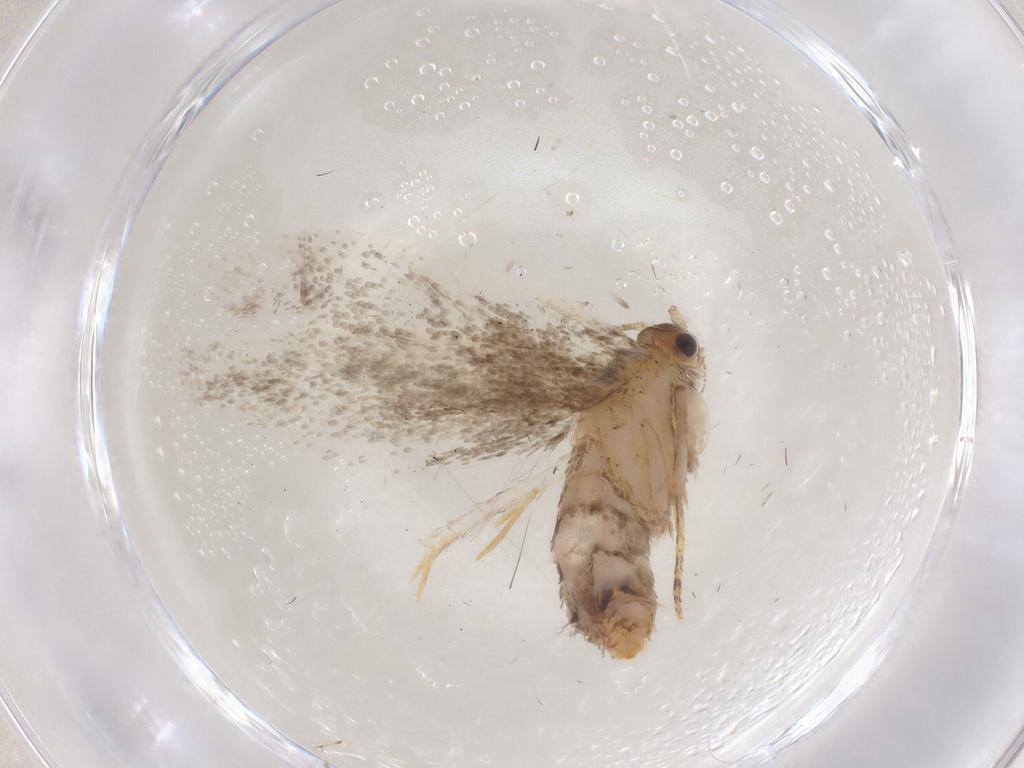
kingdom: Animalia
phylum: Arthropoda
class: Insecta
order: Lepidoptera
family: Dryadaulidae
